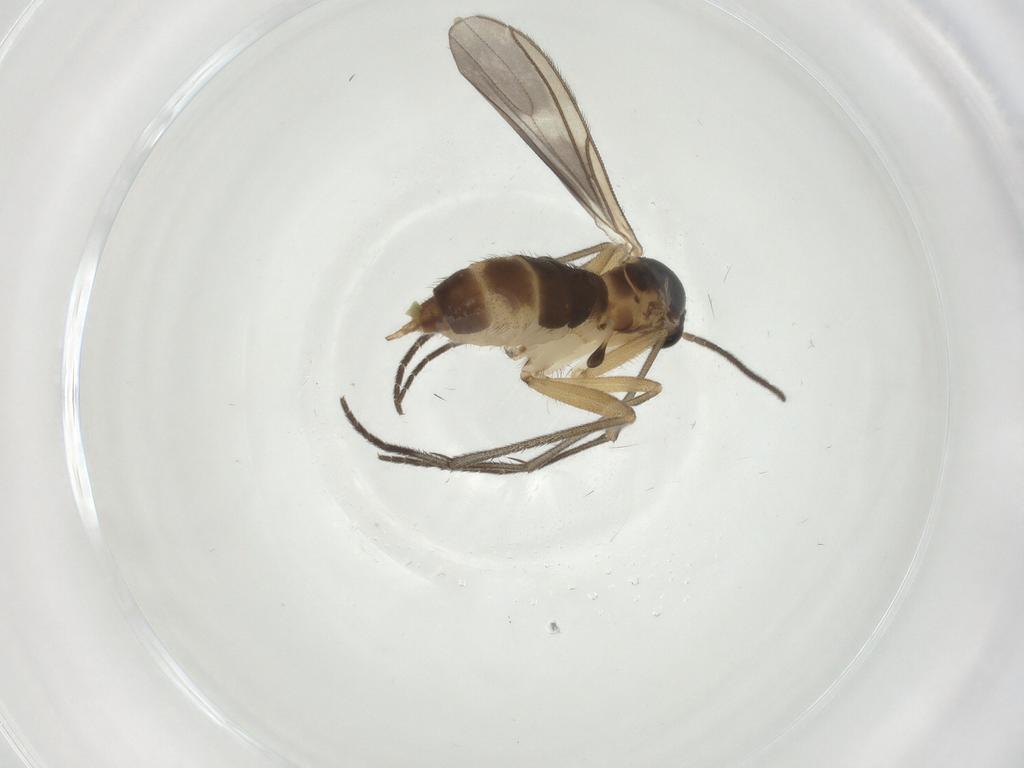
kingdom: Animalia
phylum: Arthropoda
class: Insecta
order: Diptera
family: Sciaridae
